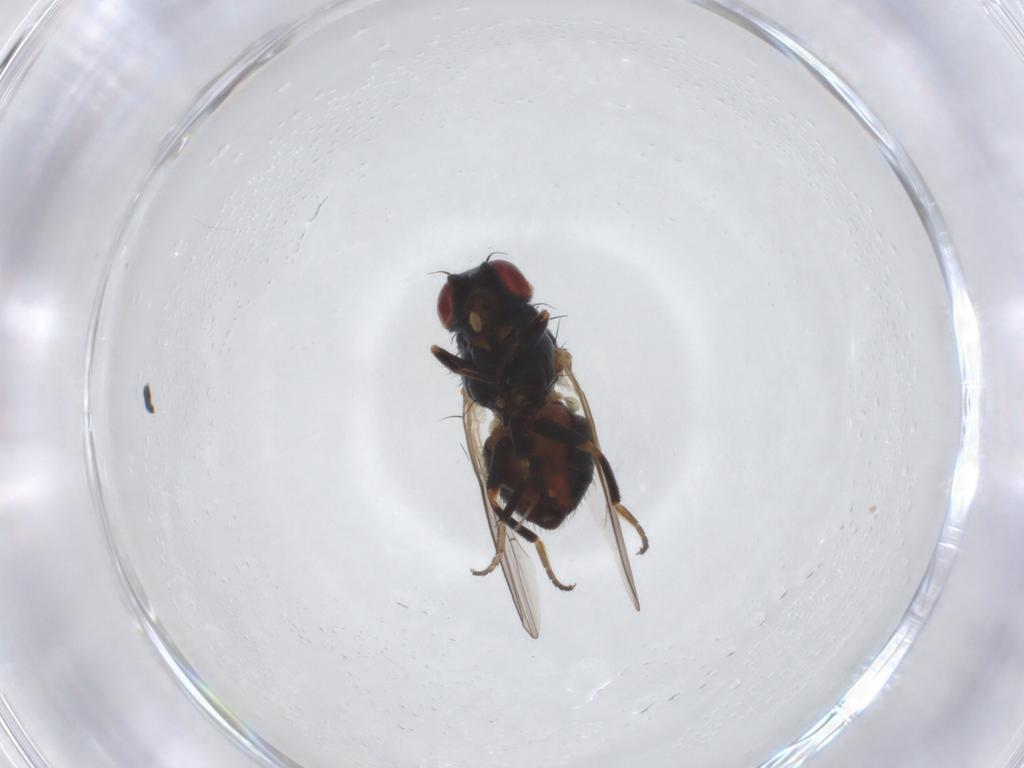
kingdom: Animalia
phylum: Arthropoda
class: Insecta
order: Diptera
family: Chamaemyiidae
